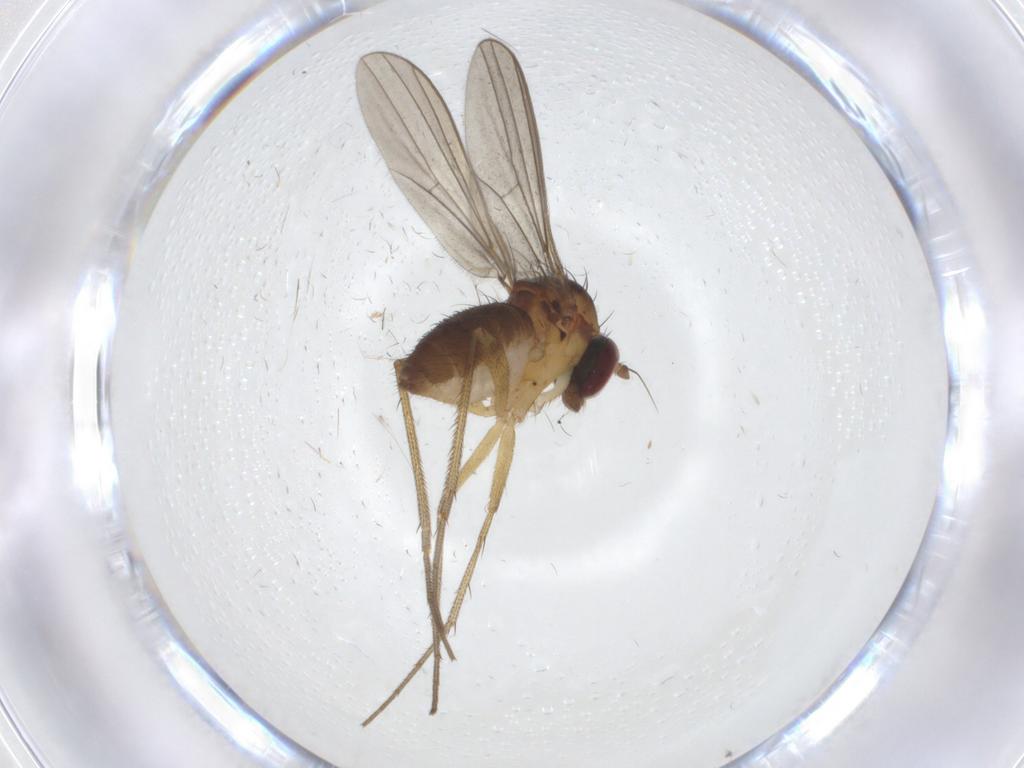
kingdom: Animalia
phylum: Arthropoda
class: Insecta
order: Diptera
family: Dolichopodidae
